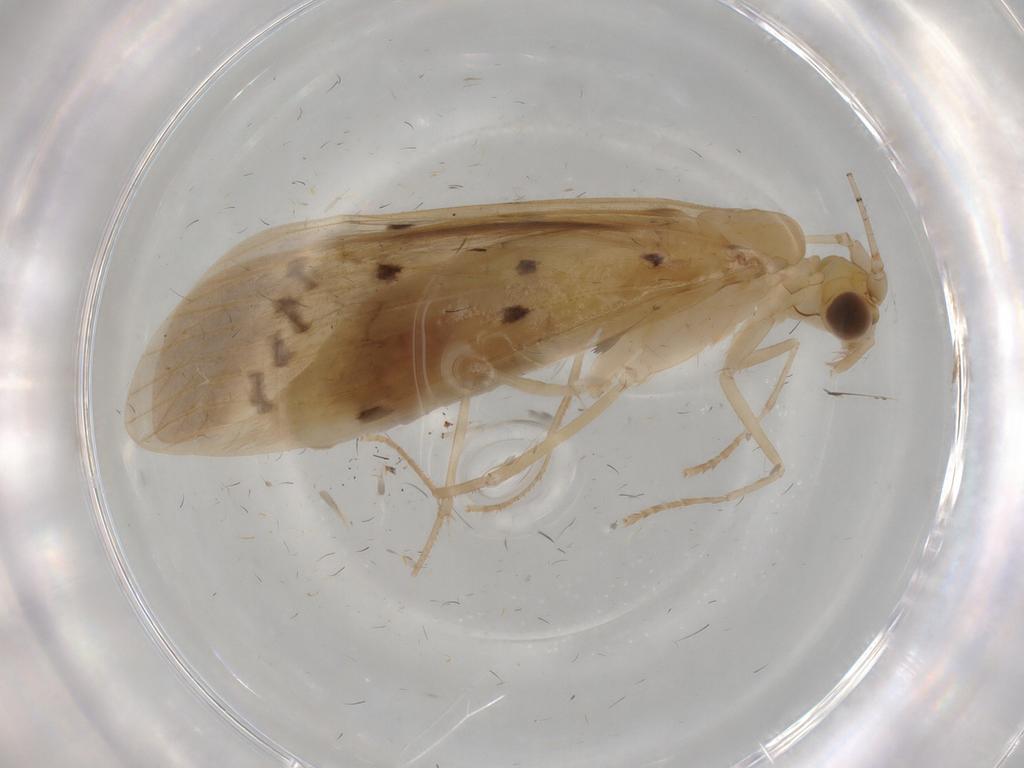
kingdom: Animalia
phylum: Arthropoda
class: Insecta
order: Trichoptera
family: Leptoceridae
